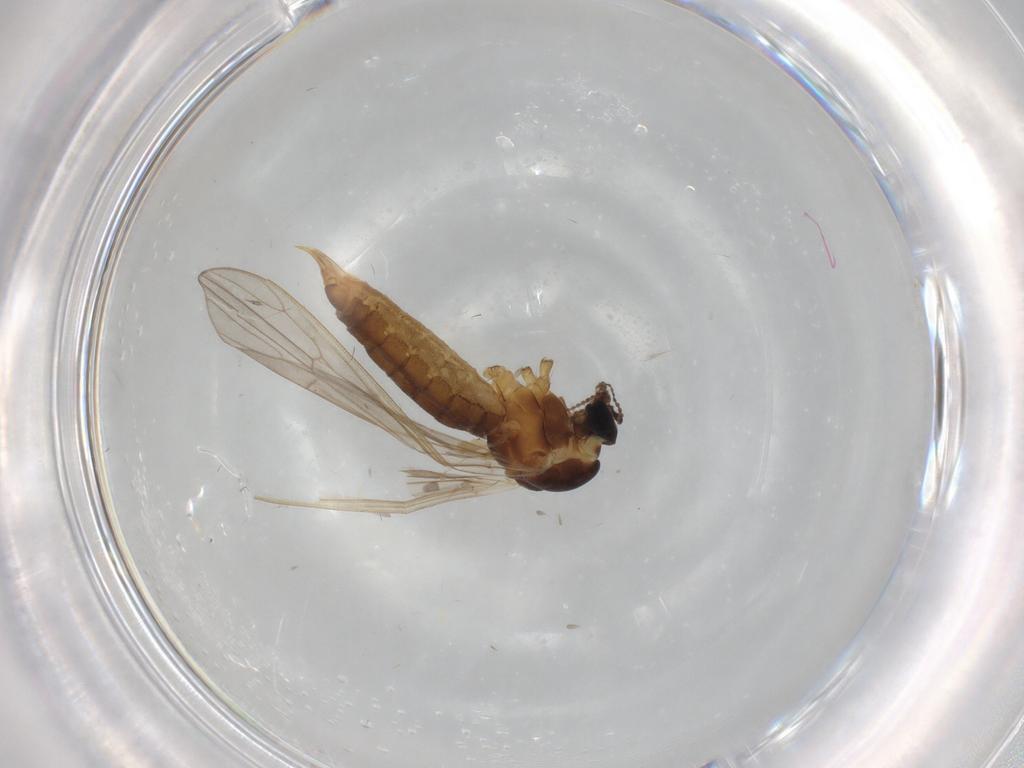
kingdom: Animalia
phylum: Arthropoda
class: Insecta
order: Diptera
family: Limoniidae
